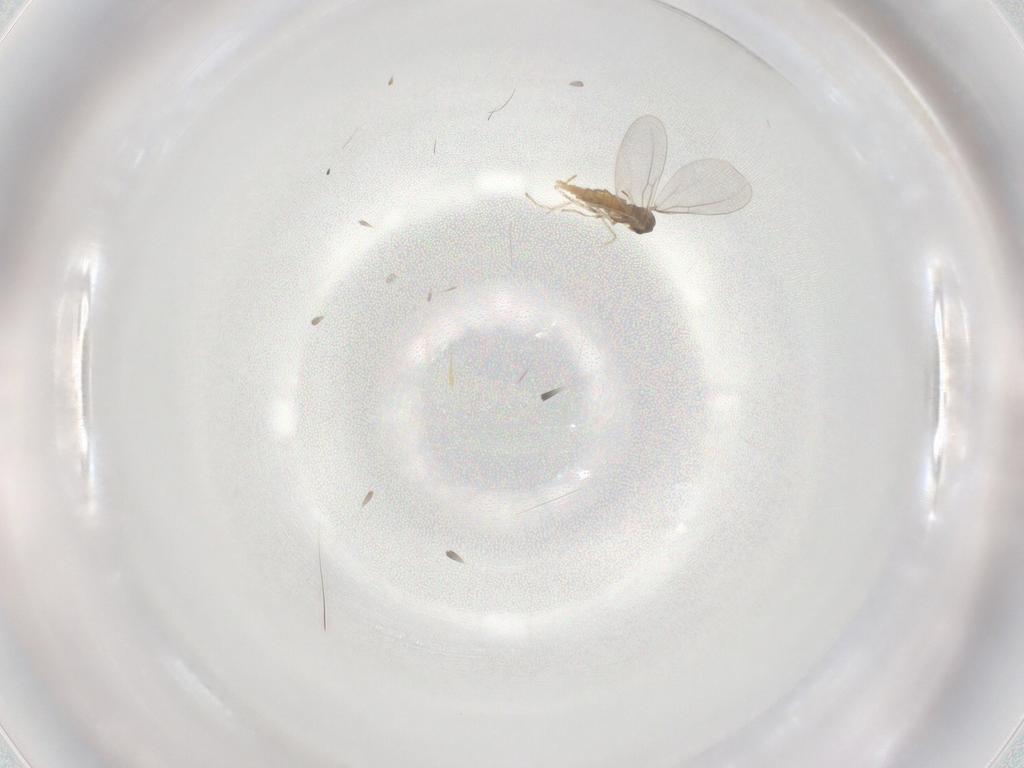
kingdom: Animalia
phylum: Arthropoda
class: Insecta
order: Diptera
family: Cecidomyiidae
